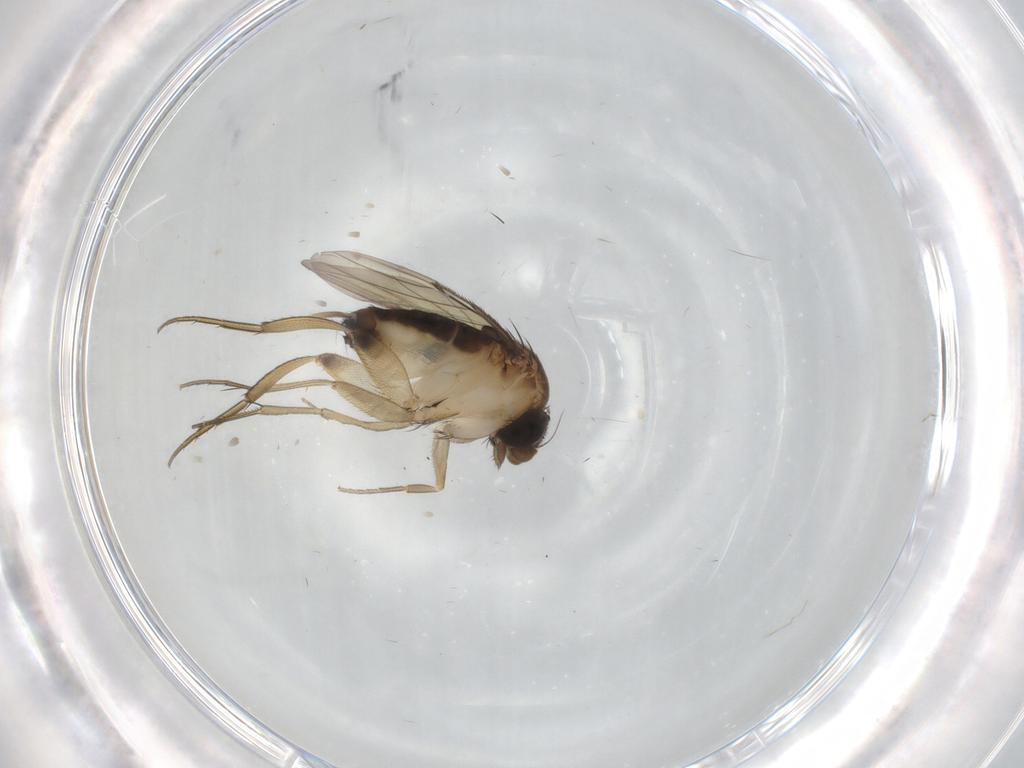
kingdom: Animalia
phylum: Arthropoda
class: Insecta
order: Diptera
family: Phoridae
